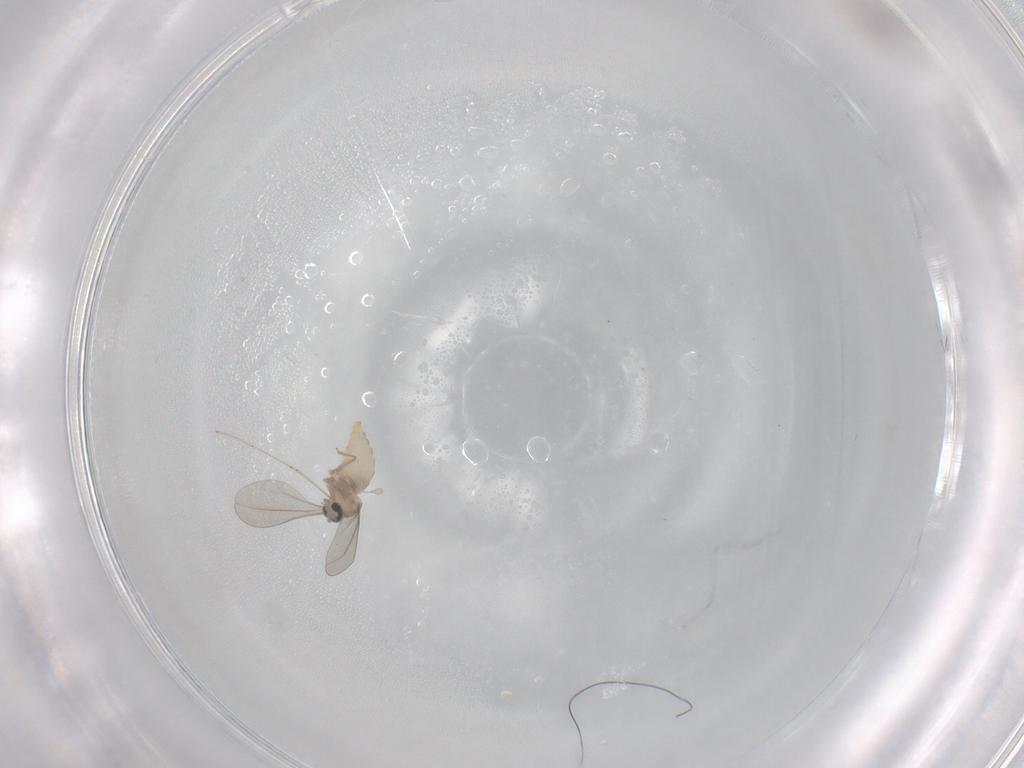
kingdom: Animalia
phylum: Arthropoda
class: Insecta
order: Diptera
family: Cecidomyiidae
